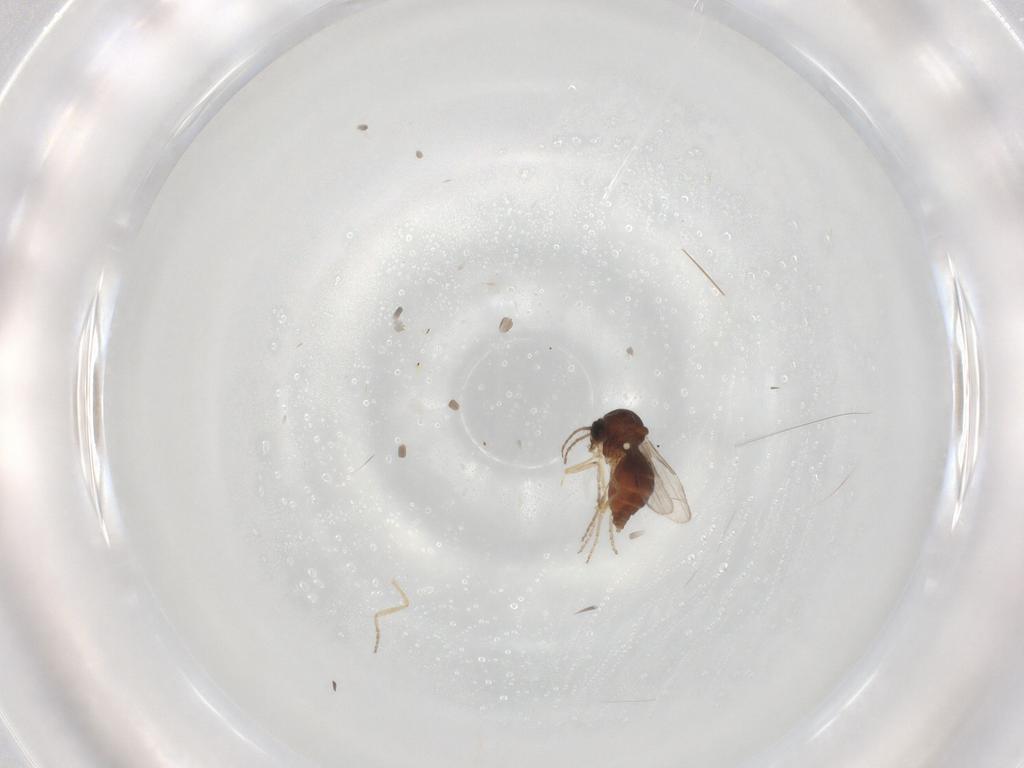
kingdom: Animalia
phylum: Arthropoda
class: Insecta
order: Diptera
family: Ceratopogonidae
